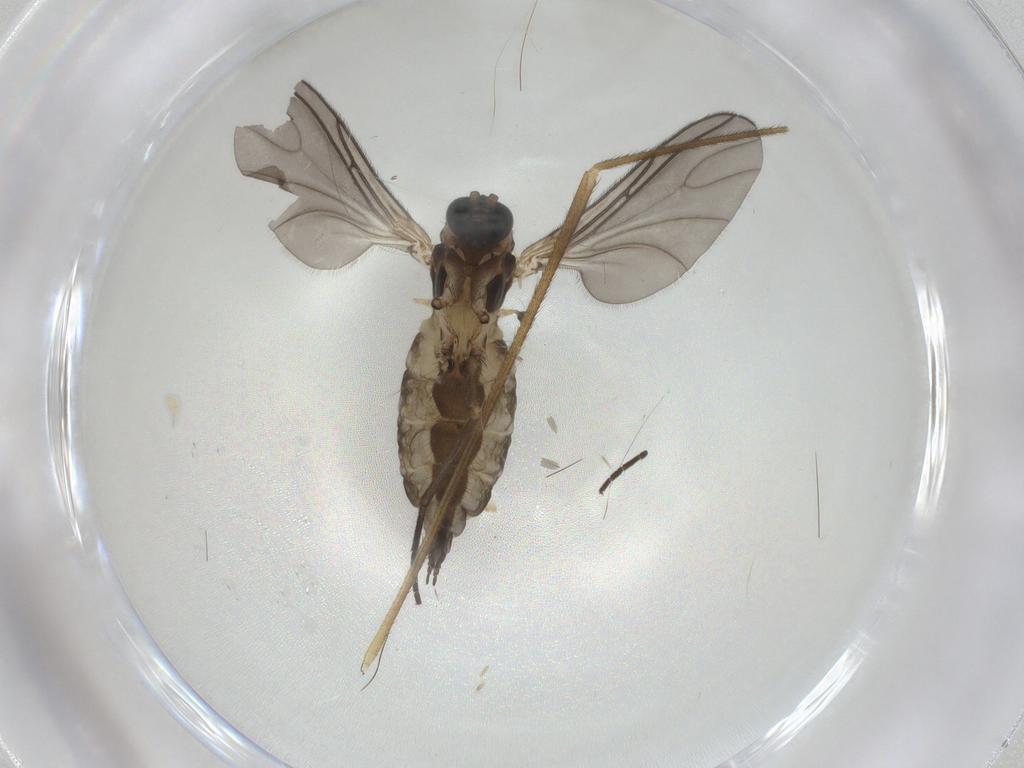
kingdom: Animalia
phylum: Arthropoda
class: Insecta
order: Diptera
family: Sciaridae
